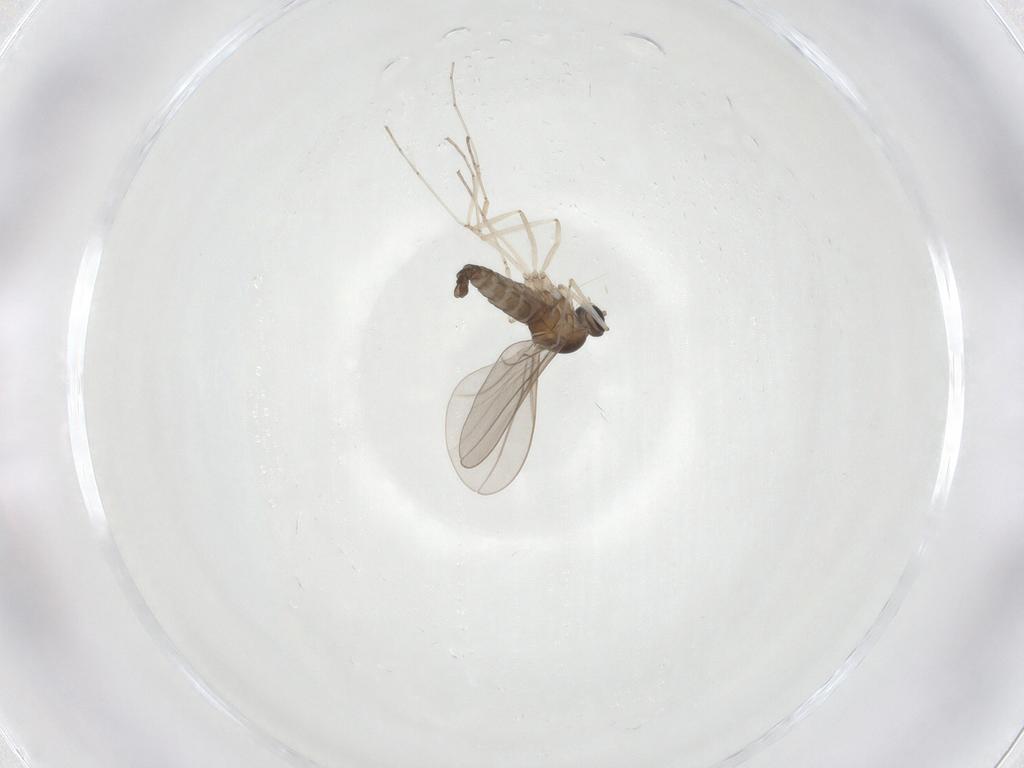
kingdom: Animalia
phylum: Arthropoda
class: Insecta
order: Diptera
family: Cecidomyiidae
